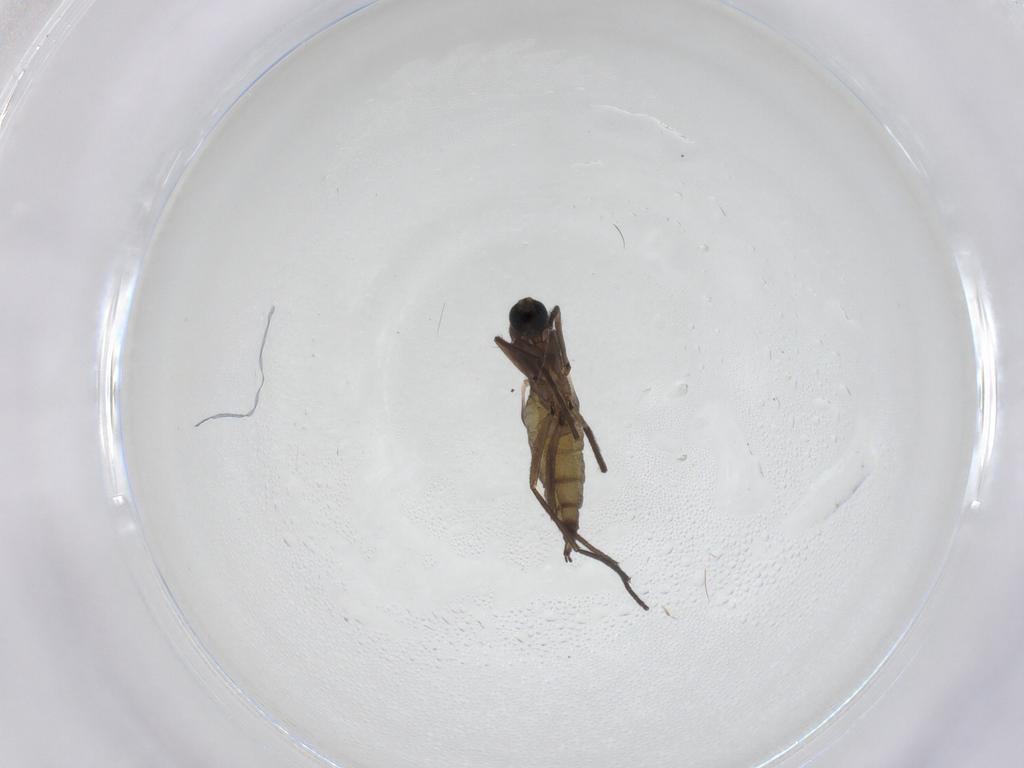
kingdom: Animalia
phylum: Arthropoda
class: Insecta
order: Diptera
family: Sciaridae
